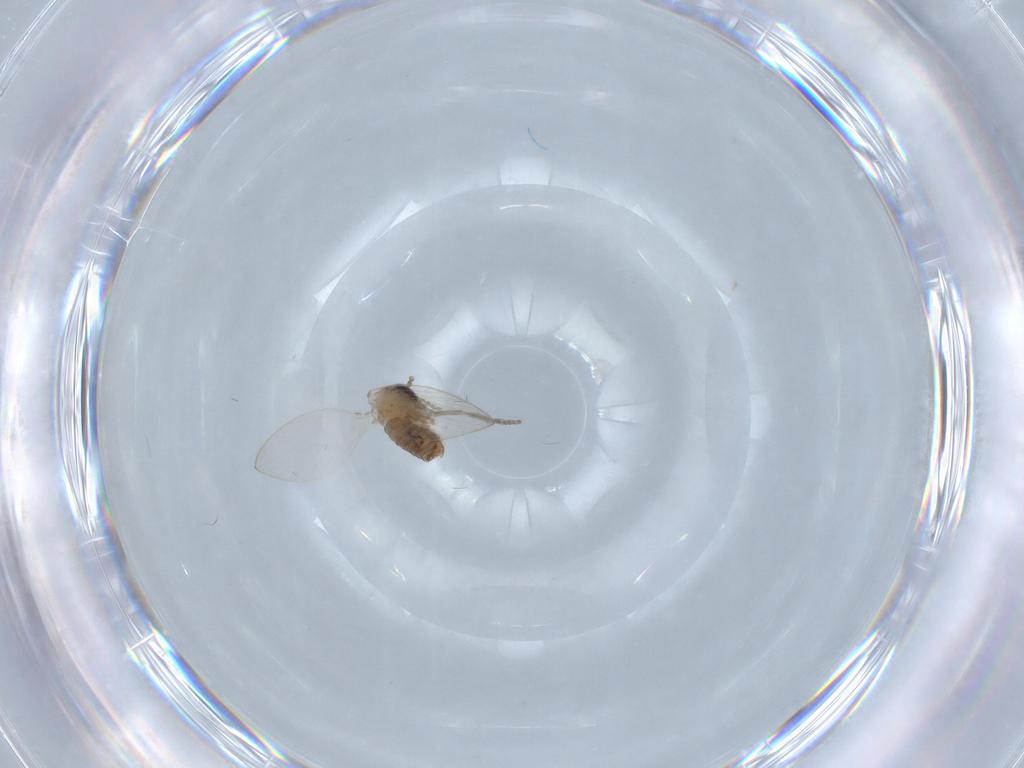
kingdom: Animalia
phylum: Arthropoda
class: Insecta
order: Diptera
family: Psychodidae
